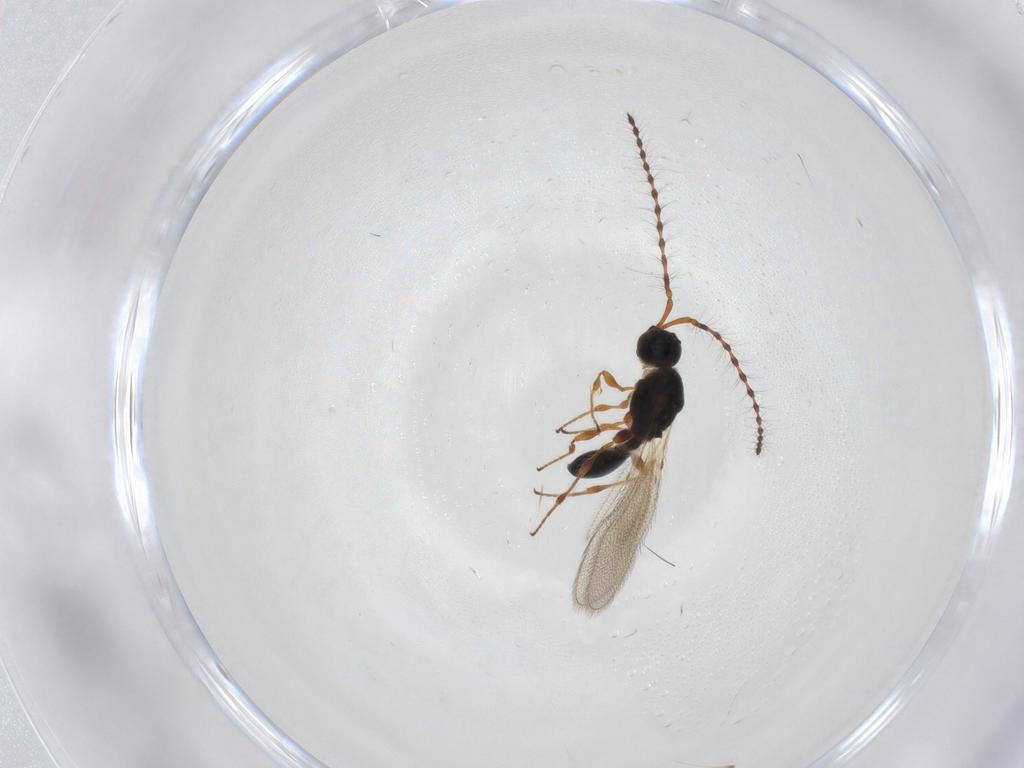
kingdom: Animalia
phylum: Arthropoda
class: Insecta
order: Hymenoptera
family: Diapriidae
